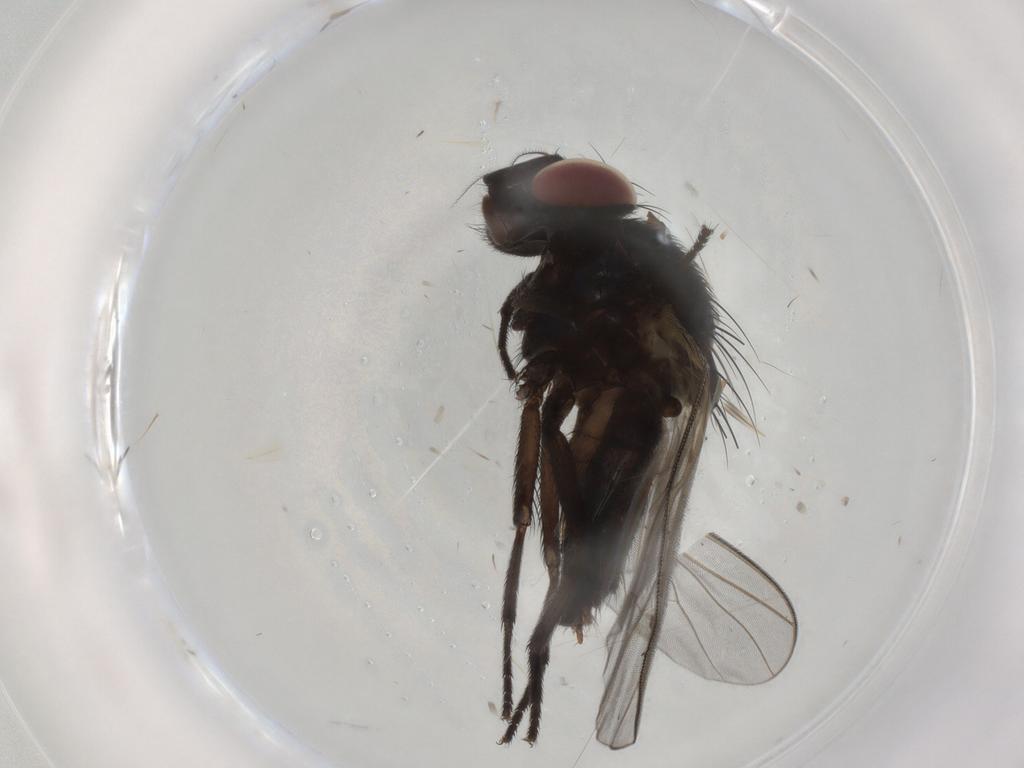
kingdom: Animalia
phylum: Arthropoda
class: Insecta
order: Diptera
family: Lonchaeidae
